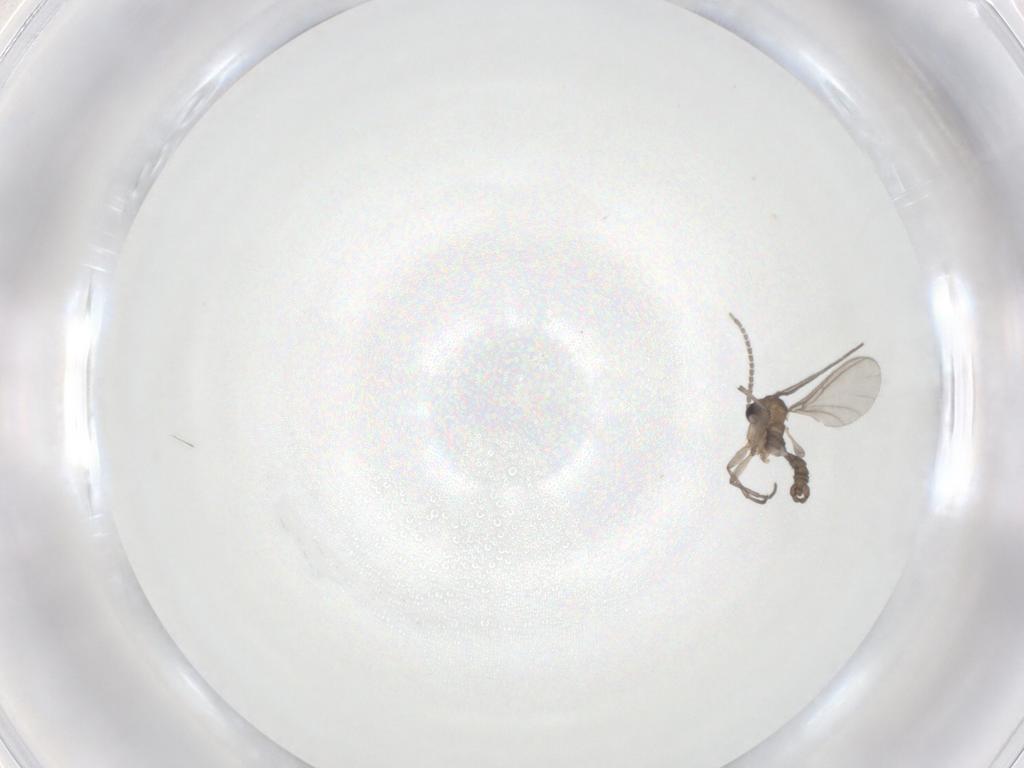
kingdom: Animalia
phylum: Arthropoda
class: Insecta
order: Diptera
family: Sciaridae
